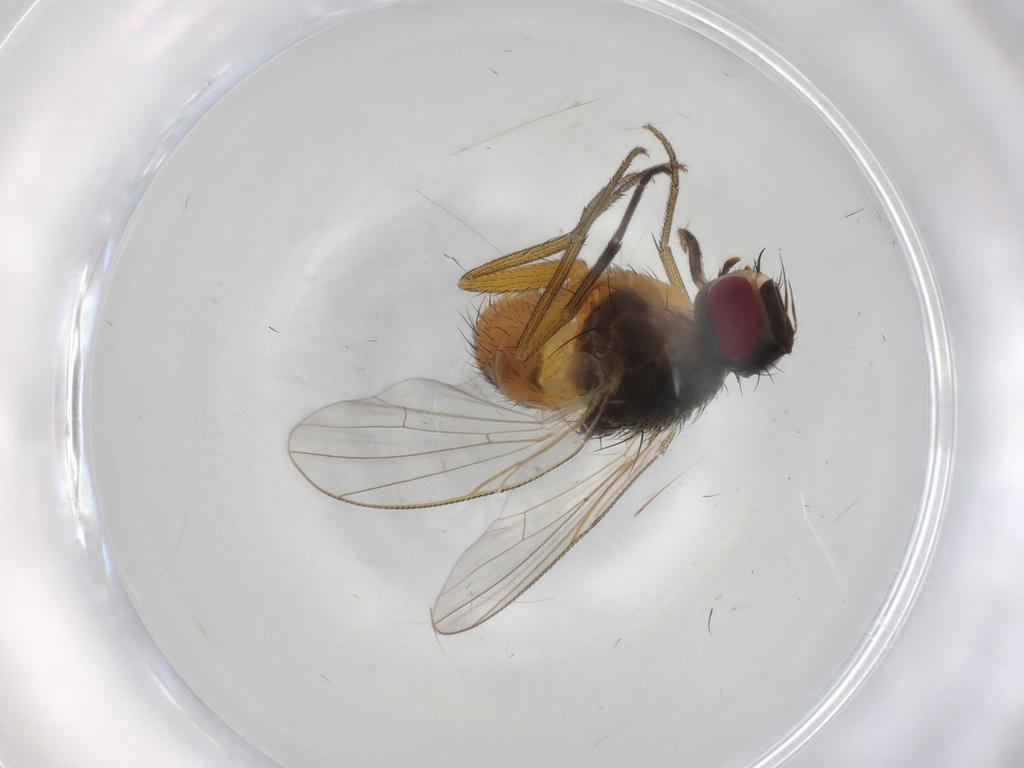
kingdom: Animalia
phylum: Arthropoda
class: Insecta
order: Diptera
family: Muscidae
